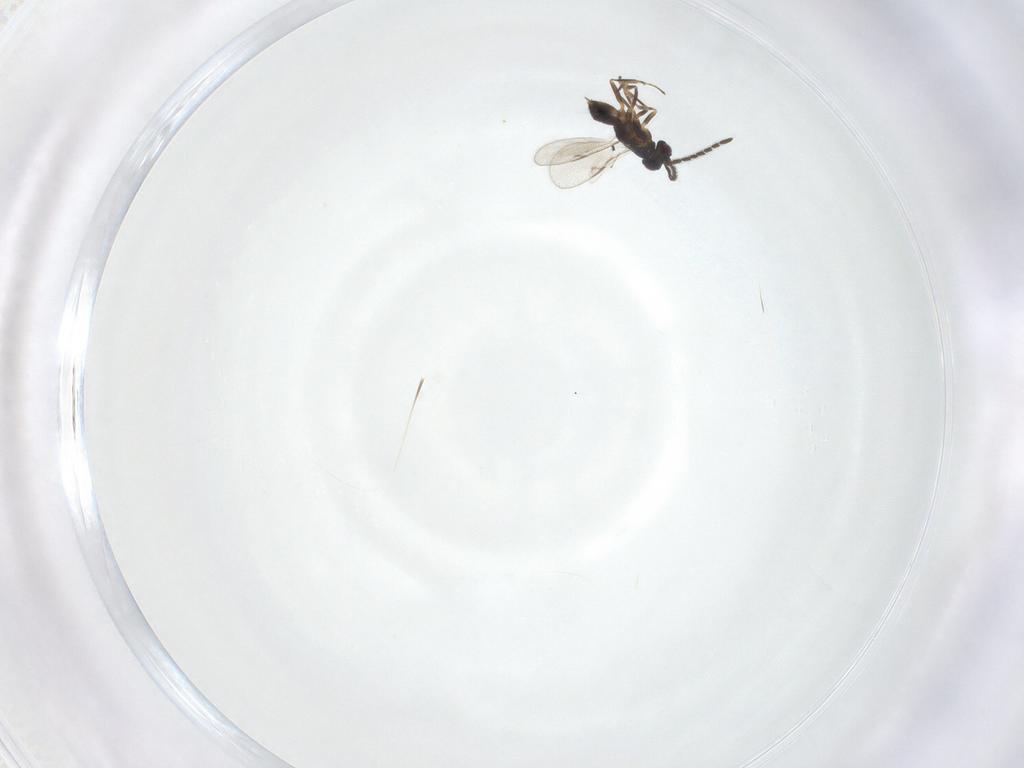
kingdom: Animalia
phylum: Arthropoda
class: Insecta
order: Hymenoptera
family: Encyrtidae
